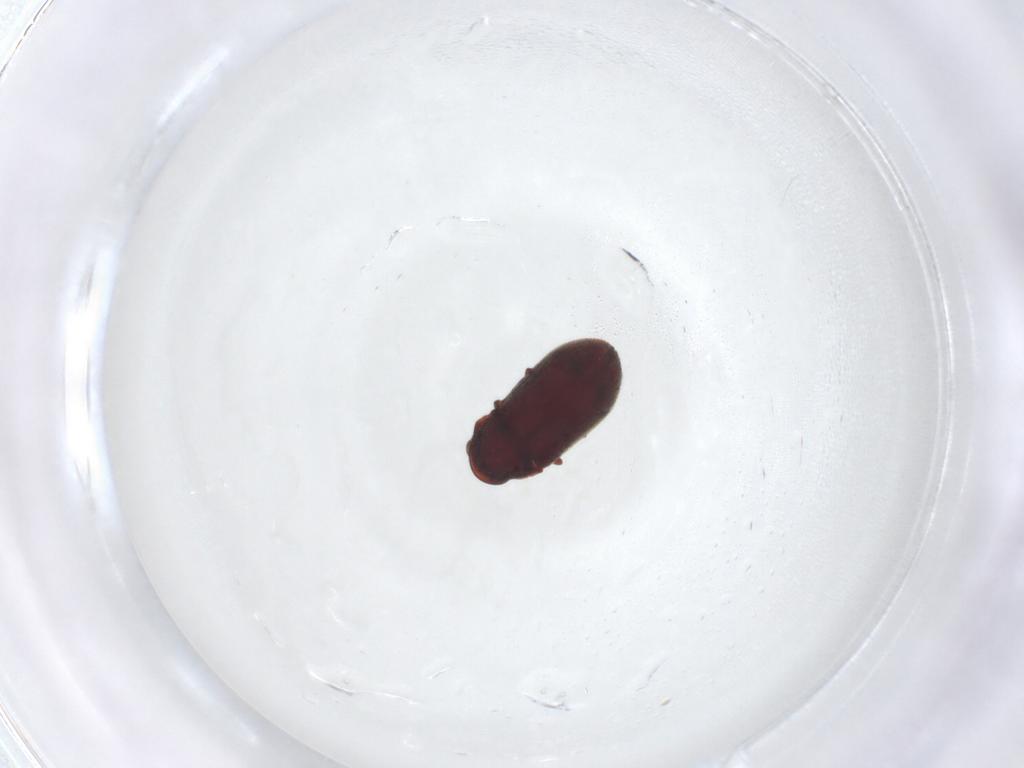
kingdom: Animalia
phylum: Arthropoda
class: Insecta
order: Coleoptera
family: Ptinidae
